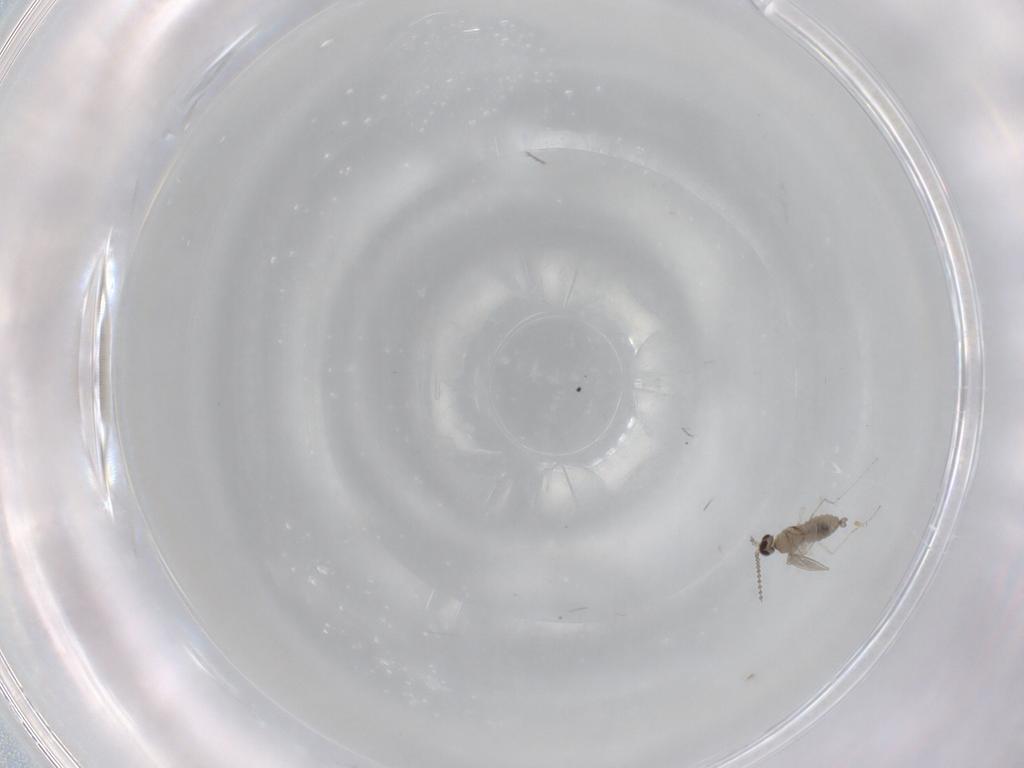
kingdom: Animalia
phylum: Arthropoda
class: Insecta
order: Diptera
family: Cecidomyiidae
